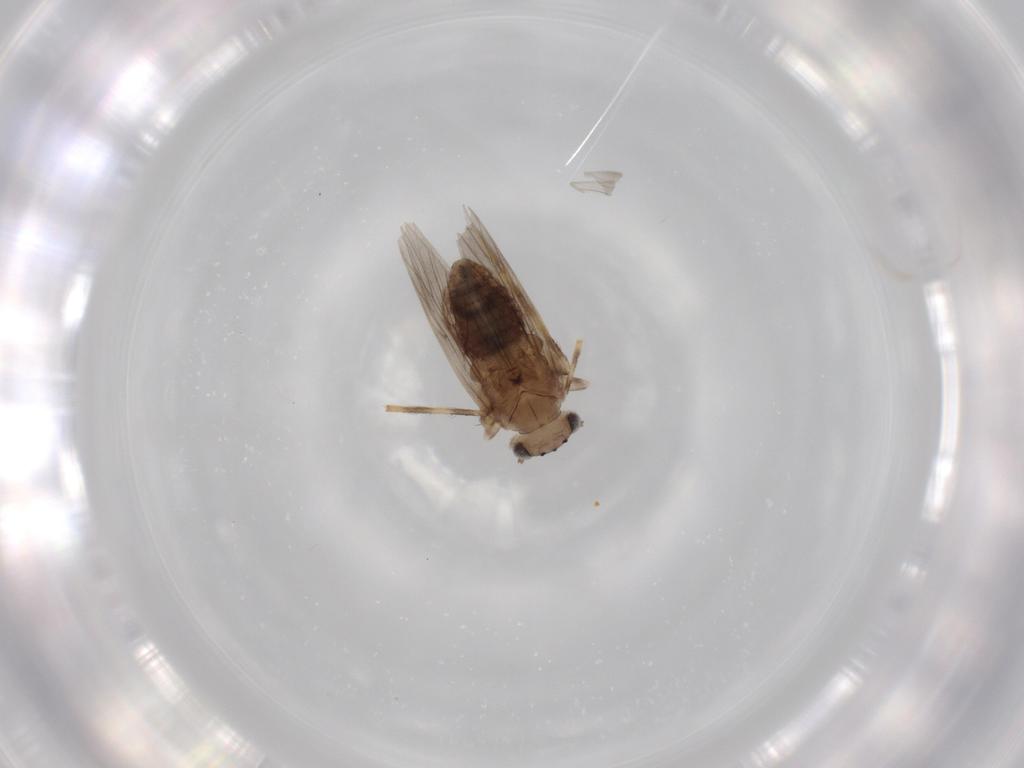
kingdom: Animalia
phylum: Arthropoda
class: Insecta
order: Psocodea
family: Lepidopsocidae
